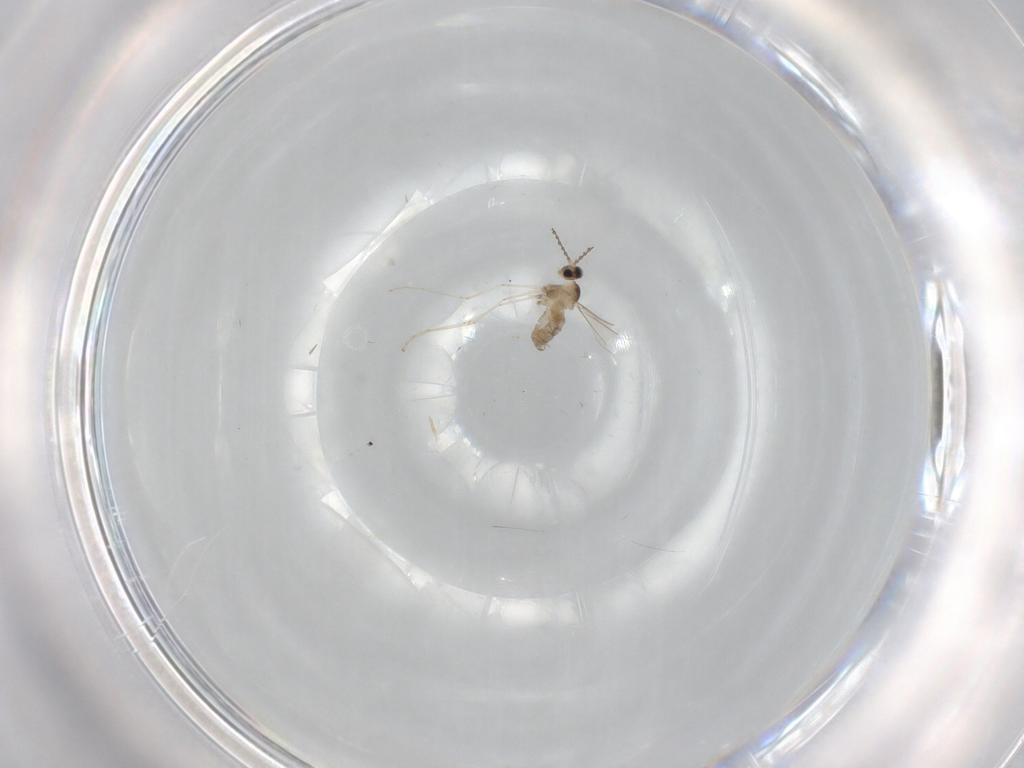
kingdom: Animalia
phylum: Arthropoda
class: Insecta
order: Diptera
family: Cecidomyiidae
